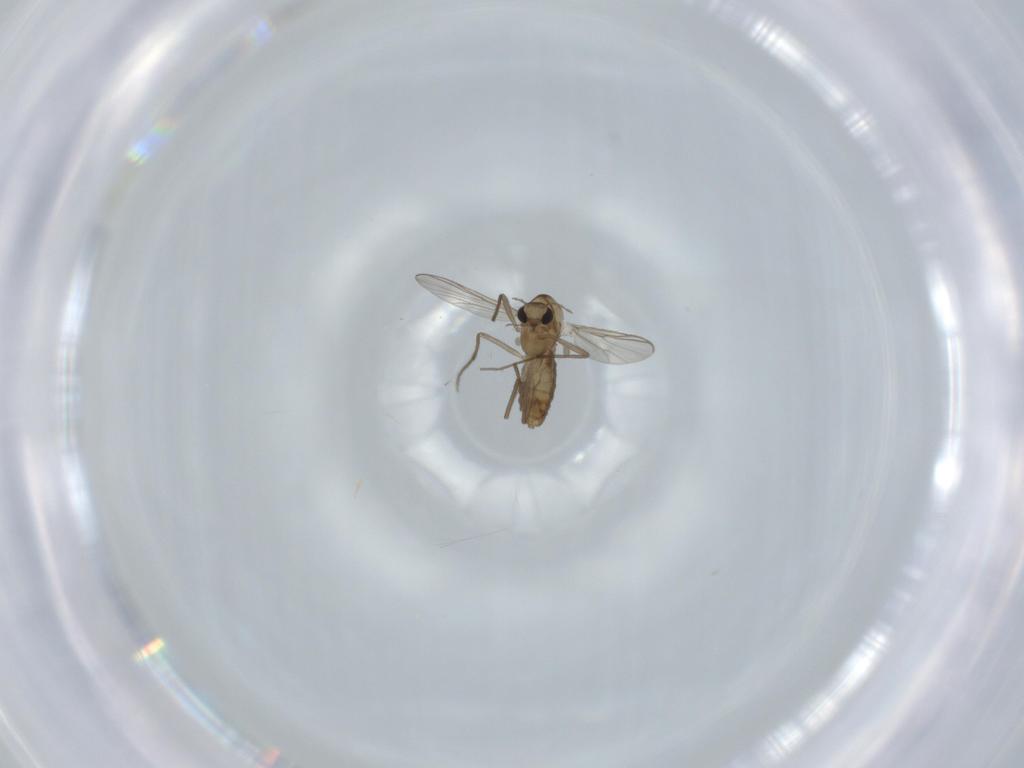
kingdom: Animalia
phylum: Arthropoda
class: Insecta
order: Diptera
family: Chironomidae
